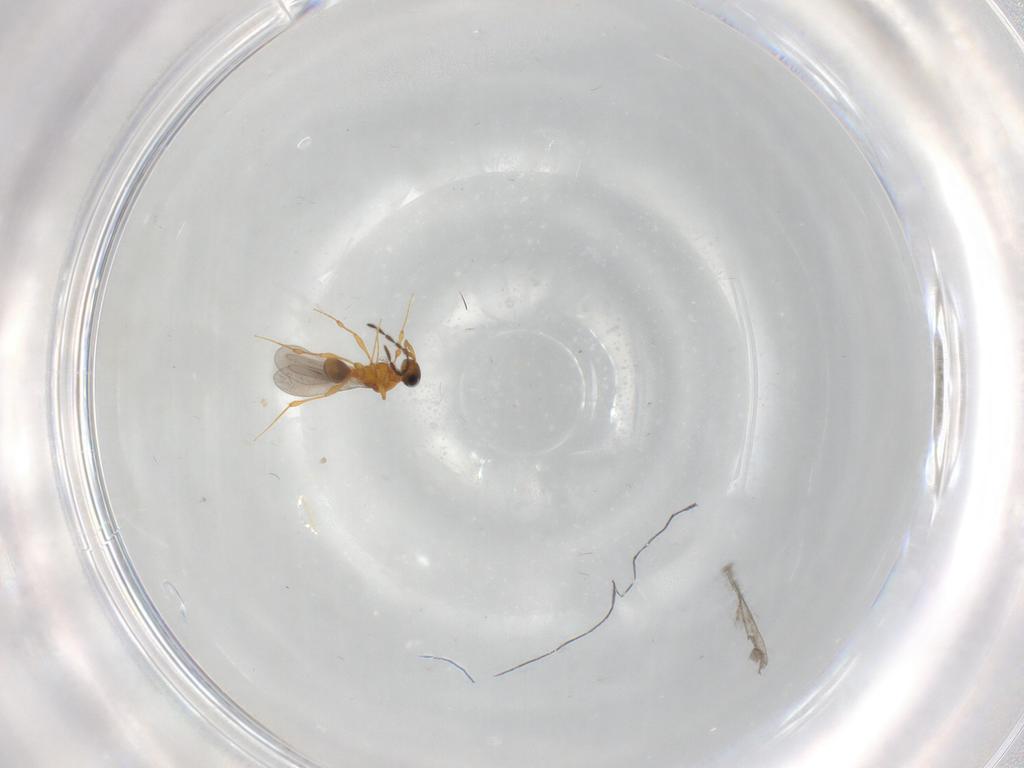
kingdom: Animalia
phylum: Arthropoda
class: Insecta
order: Hymenoptera
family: Platygastridae
